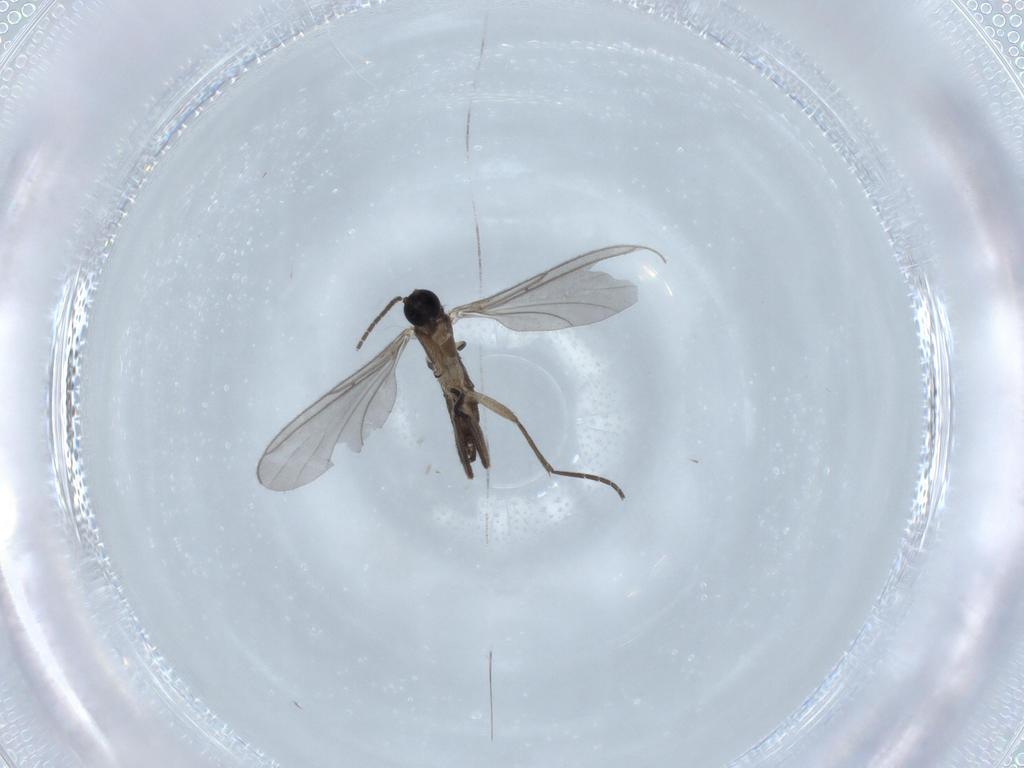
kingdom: Animalia
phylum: Arthropoda
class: Insecta
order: Diptera
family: Sciaridae
